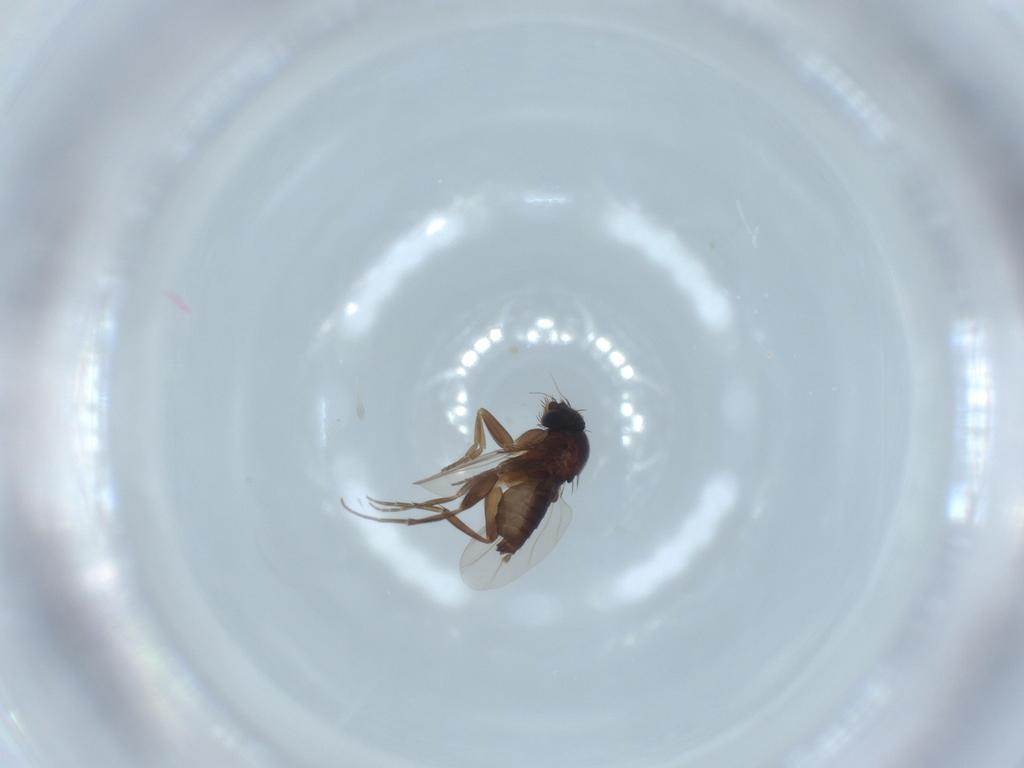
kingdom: Animalia
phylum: Arthropoda
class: Insecta
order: Diptera
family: Phoridae
